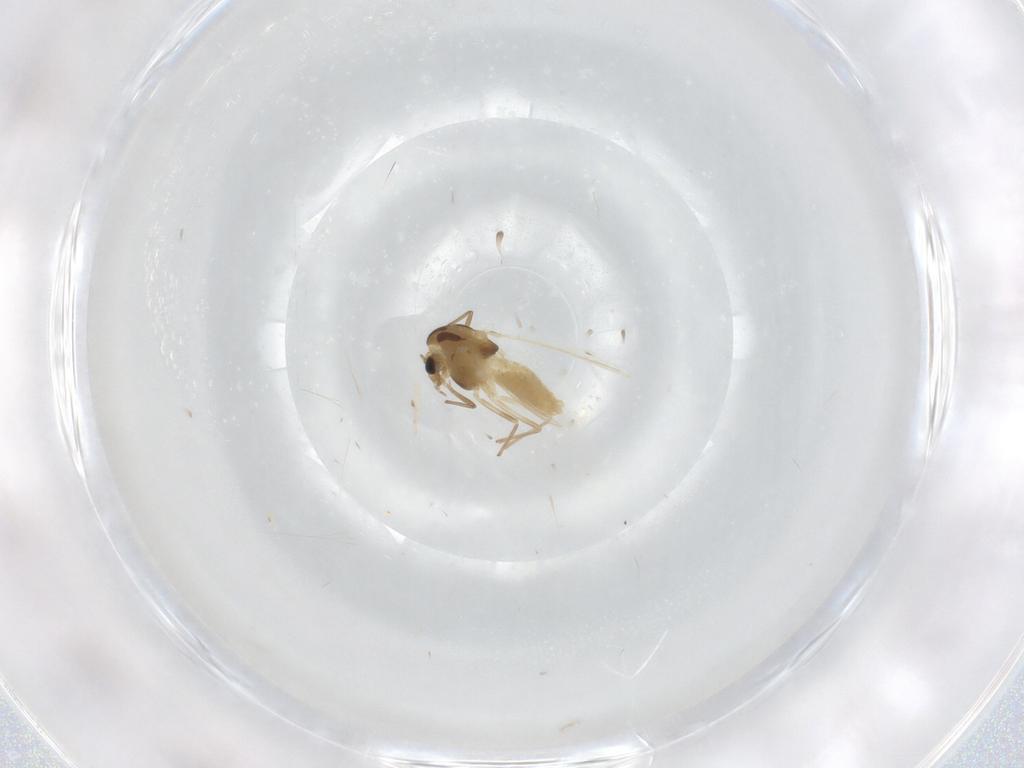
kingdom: Animalia
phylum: Arthropoda
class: Insecta
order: Diptera
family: Chironomidae
